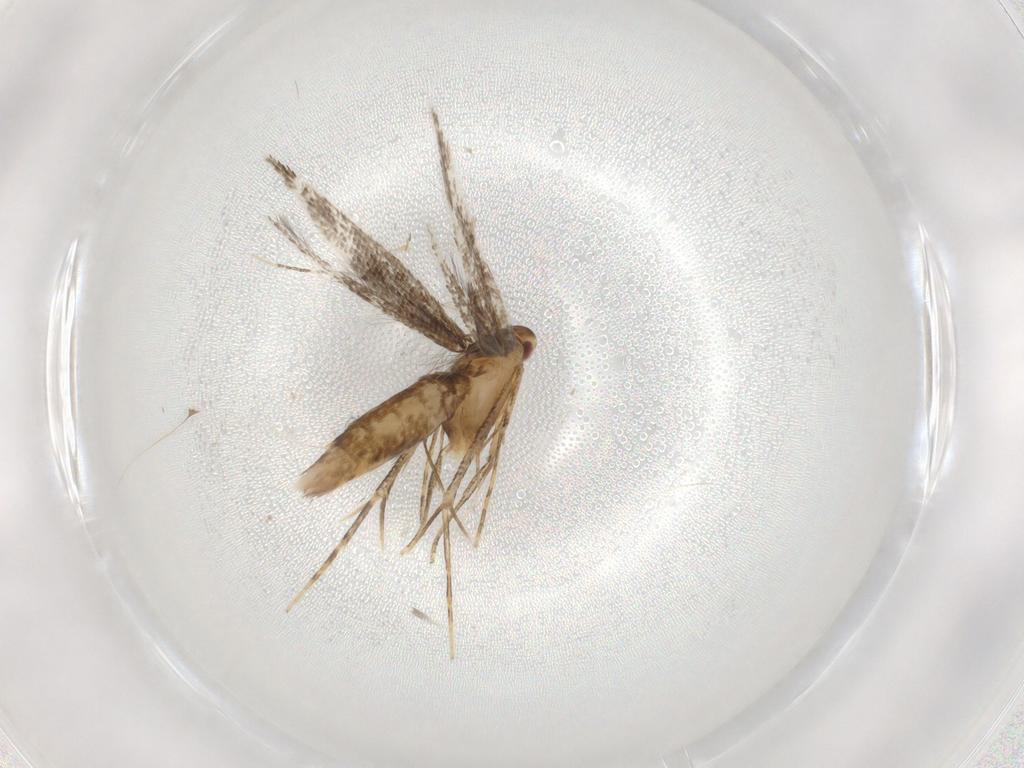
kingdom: Animalia
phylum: Arthropoda
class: Insecta
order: Lepidoptera
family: Cosmopterigidae
